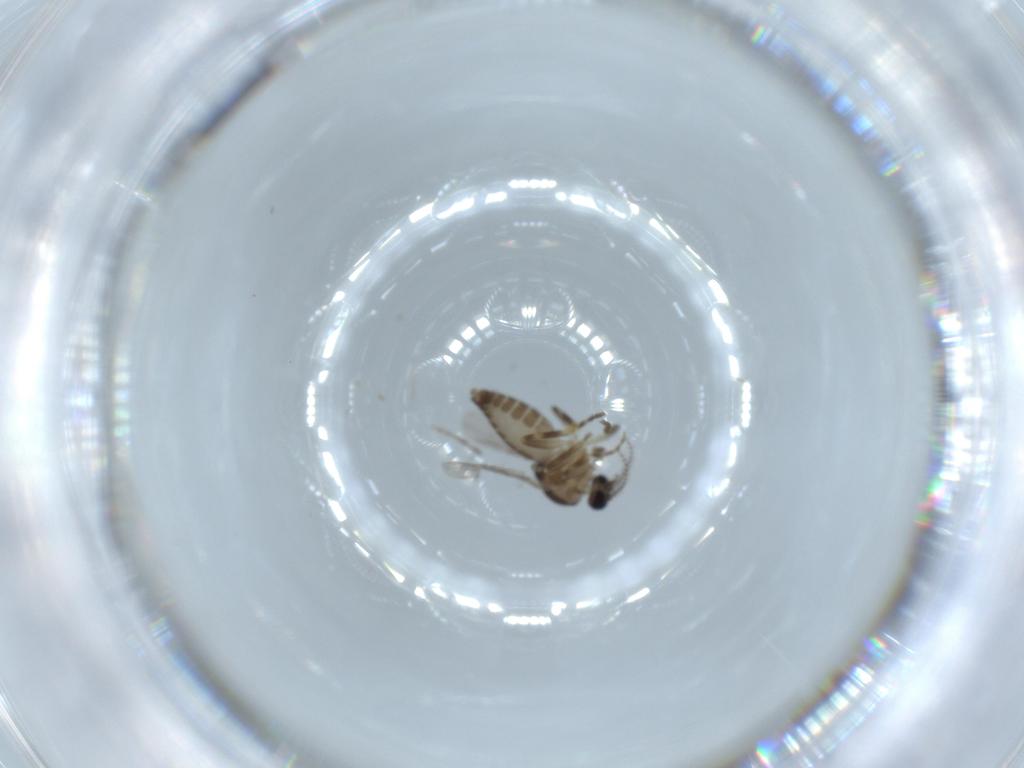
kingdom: Animalia
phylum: Arthropoda
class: Insecta
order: Diptera
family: Ceratopogonidae
